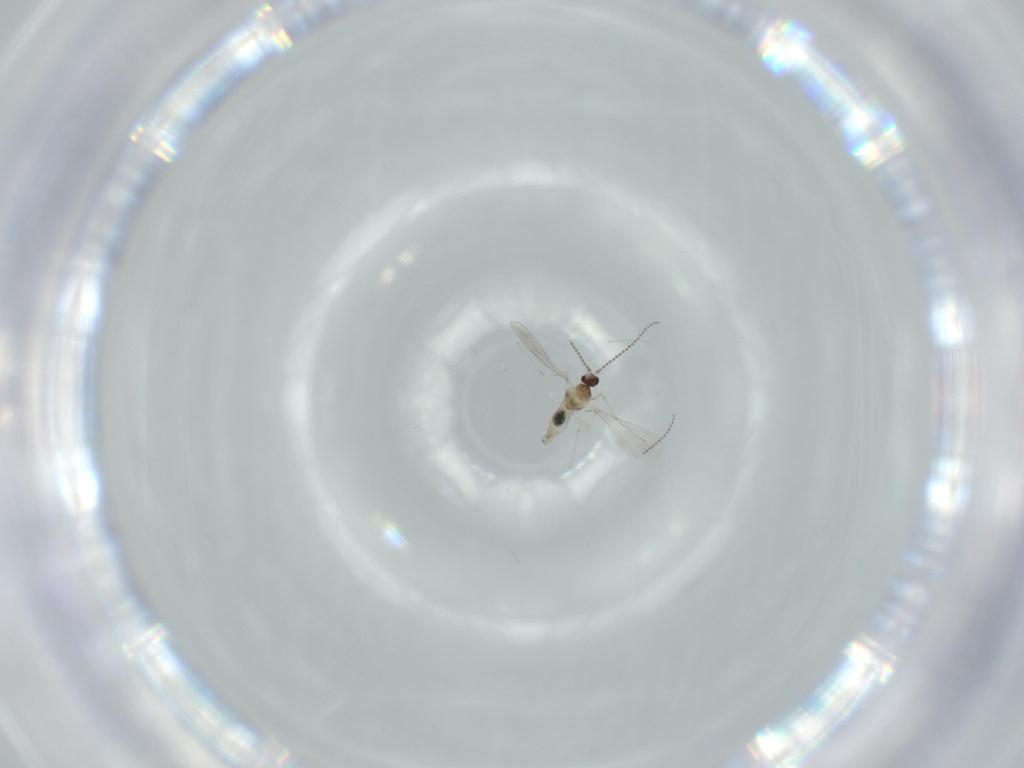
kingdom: Animalia
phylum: Arthropoda
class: Insecta
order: Diptera
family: Cecidomyiidae
